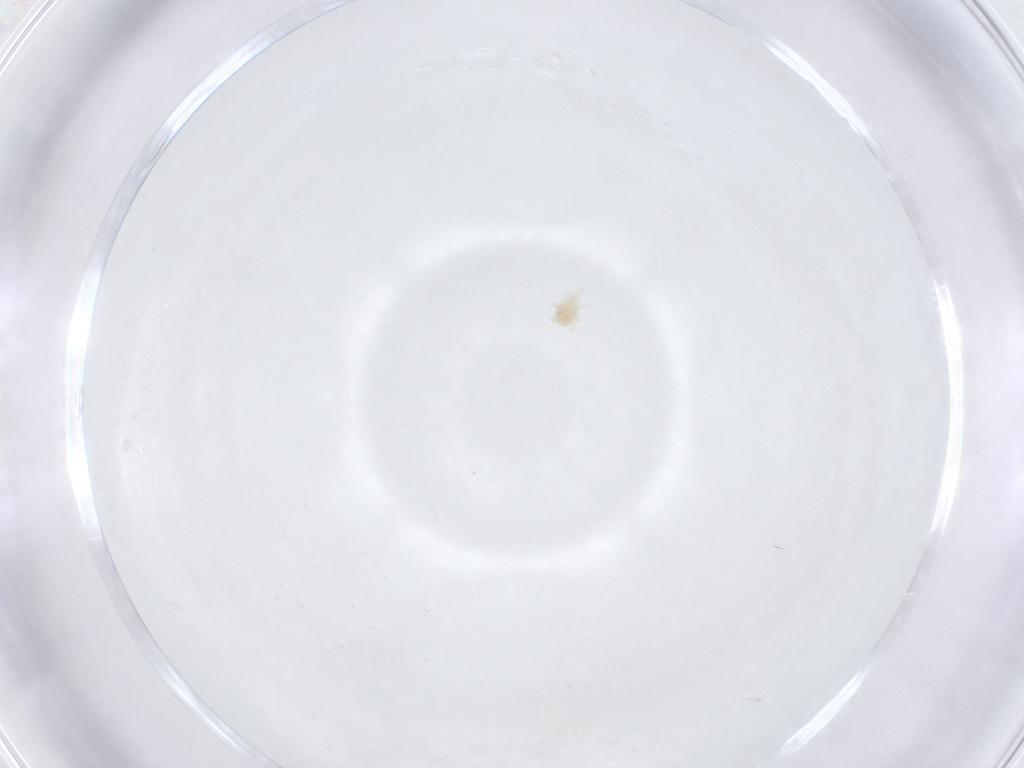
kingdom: Animalia
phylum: Arthropoda
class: Arachnida
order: Trombidiformes
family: Bdellidae
